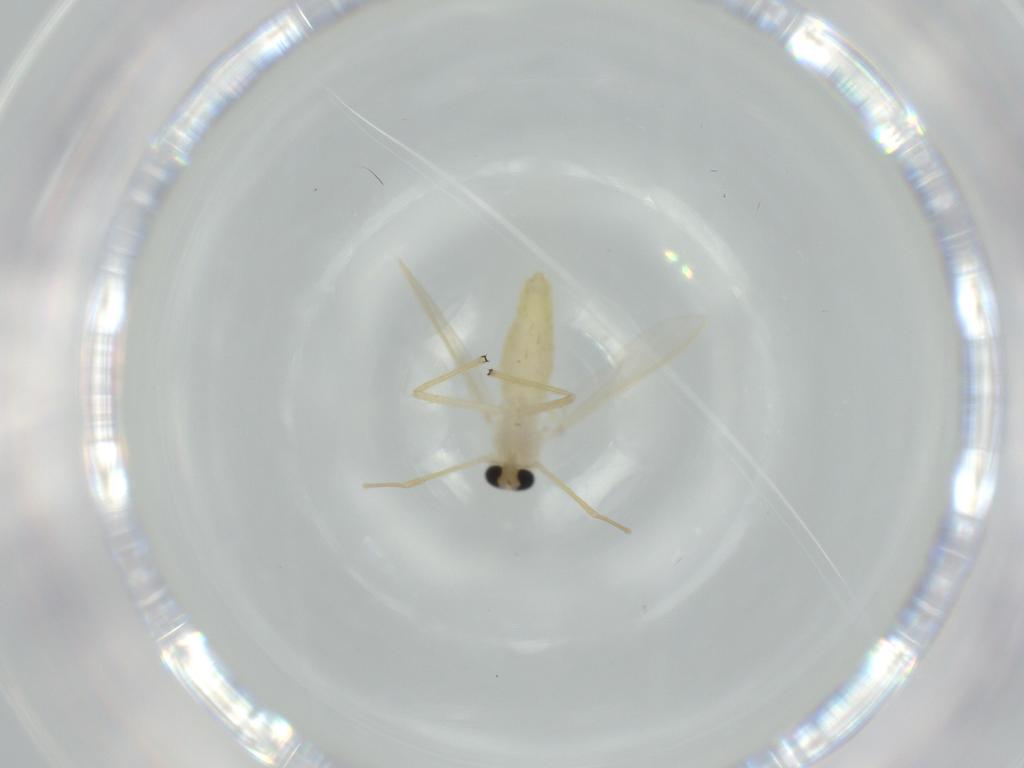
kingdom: Animalia
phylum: Arthropoda
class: Insecta
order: Diptera
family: Chironomidae
